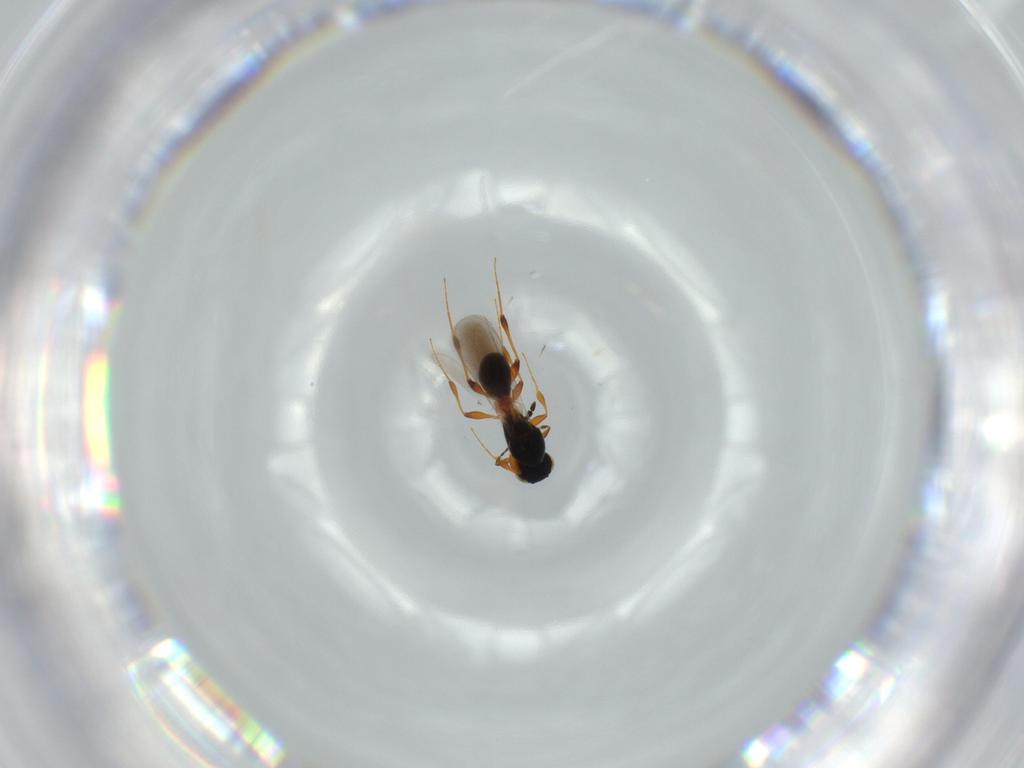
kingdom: Animalia
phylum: Arthropoda
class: Insecta
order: Hymenoptera
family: Platygastridae
